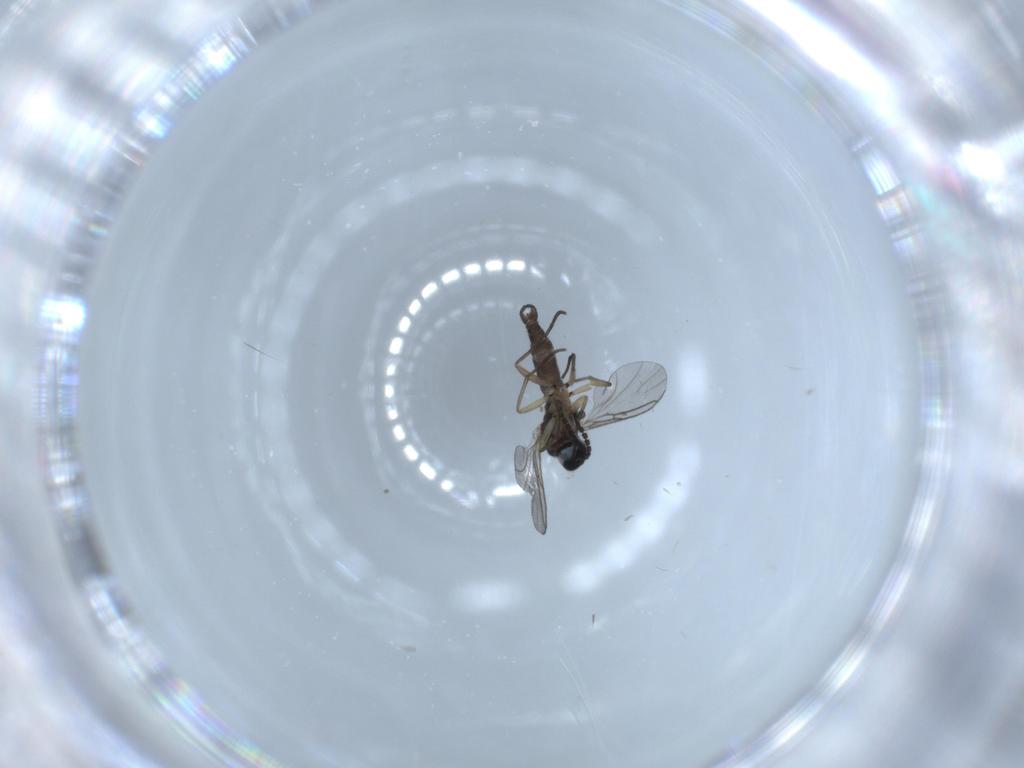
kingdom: Animalia
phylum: Arthropoda
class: Insecta
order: Diptera
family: Sciaridae
